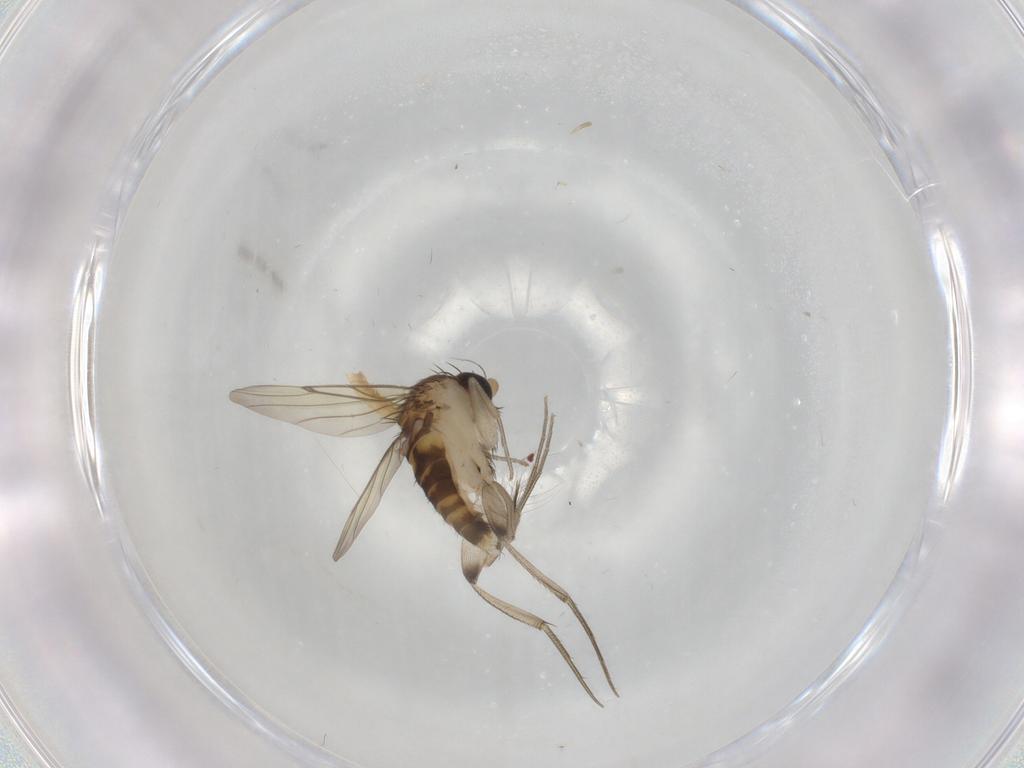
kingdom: Animalia
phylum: Arthropoda
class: Insecta
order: Diptera
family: Cecidomyiidae
